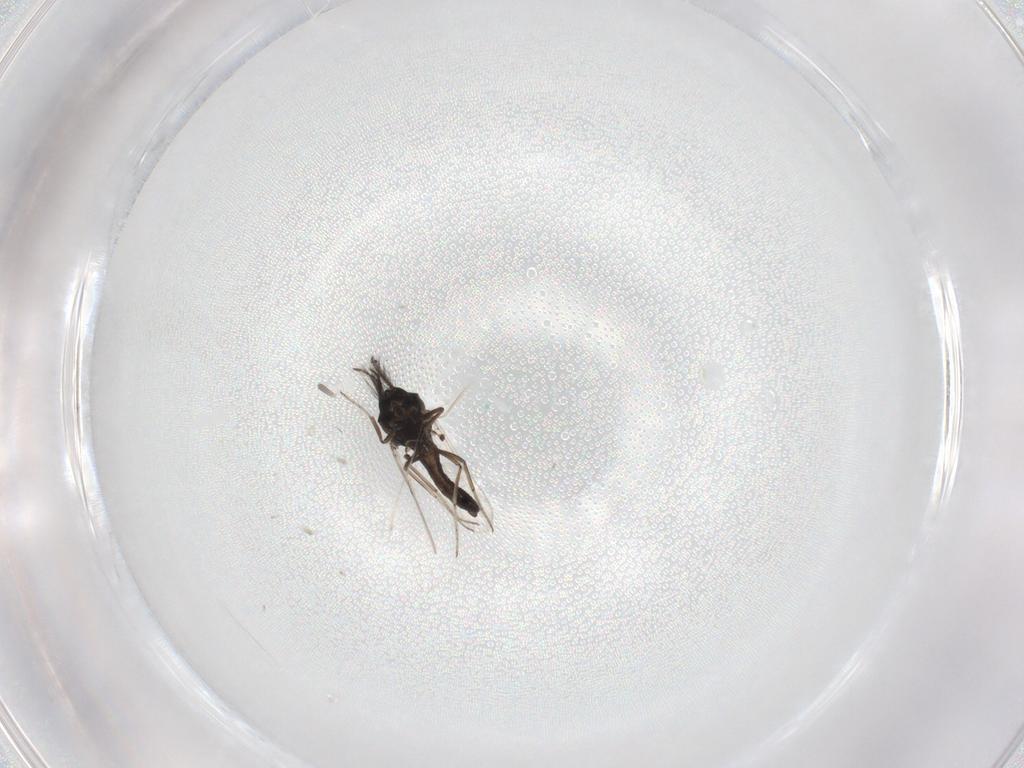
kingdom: Animalia
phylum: Arthropoda
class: Insecta
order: Diptera
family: Ceratopogonidae
